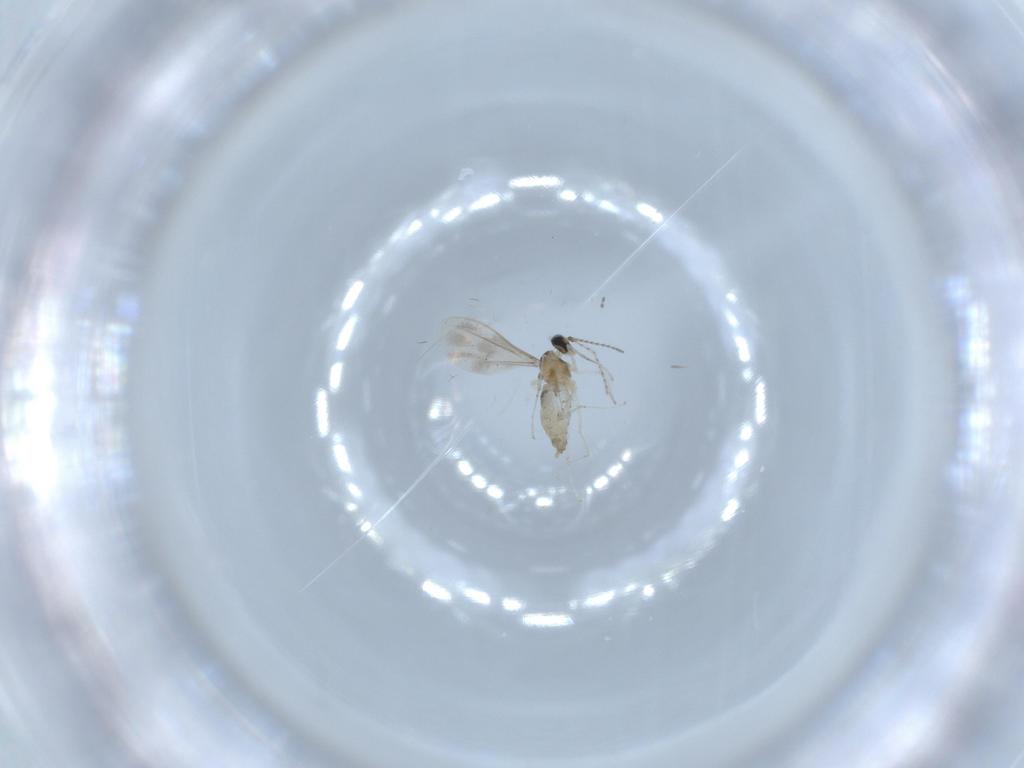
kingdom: Animalia
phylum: Arthropoda
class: Insecta
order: Diptera
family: Cecidomyiidae
